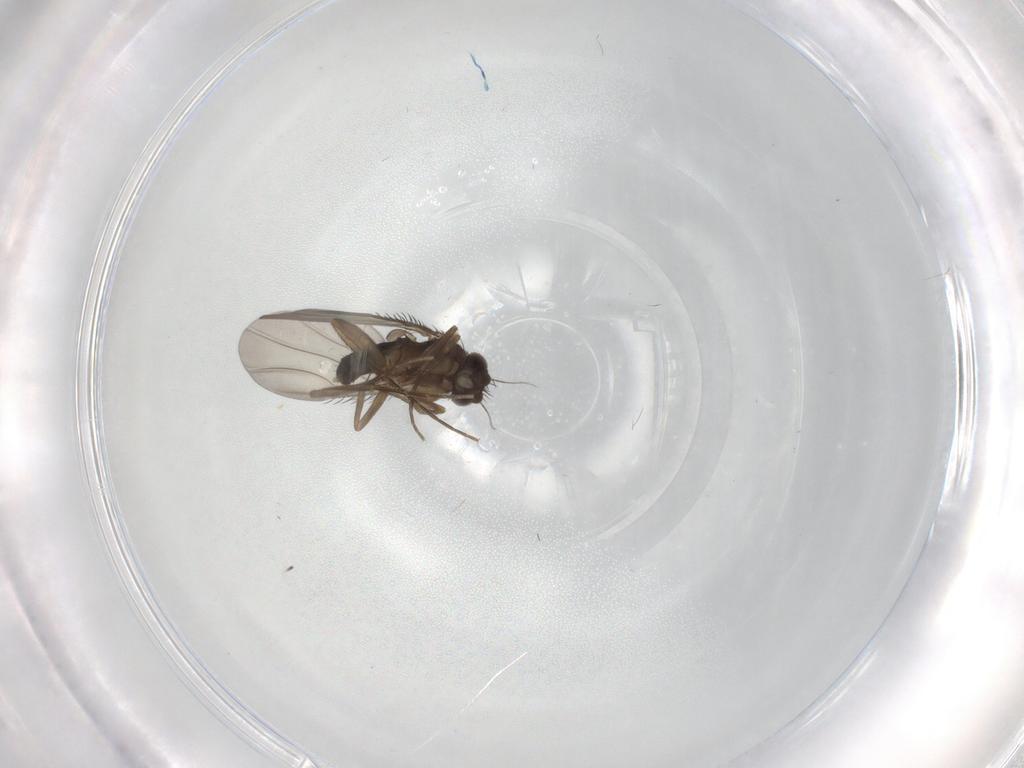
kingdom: Animalia
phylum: Arthropoda
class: Insecta
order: Diptera
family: Phoridae
